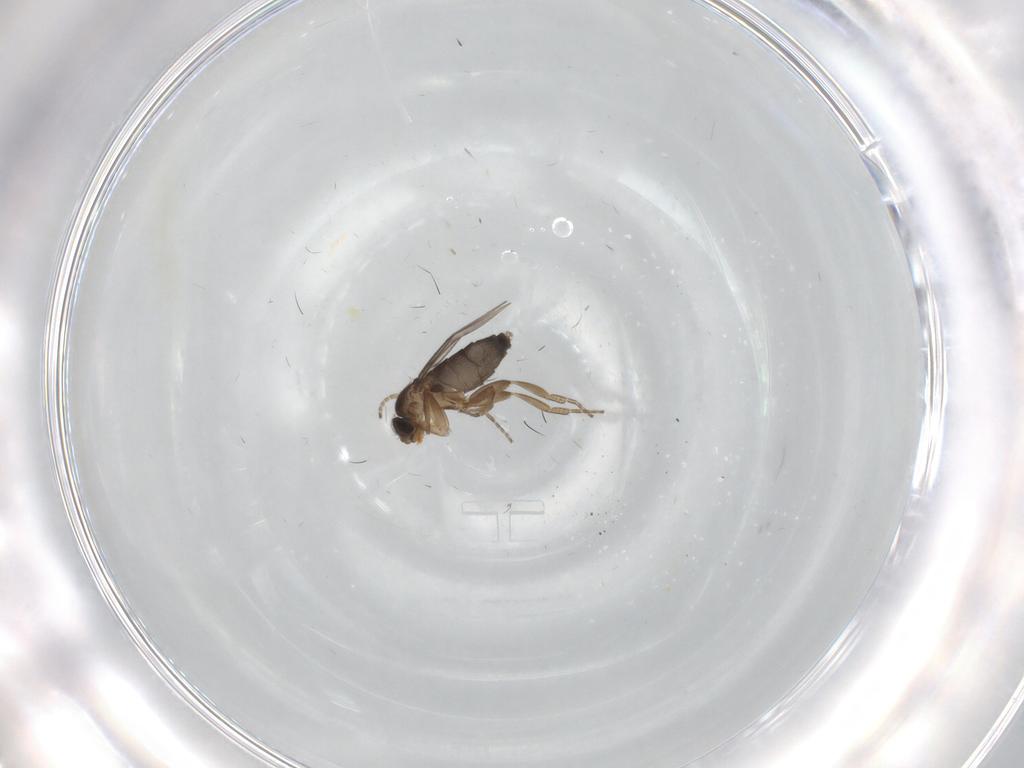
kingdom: Animalia
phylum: Arthropoda
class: Insecta
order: Diptera
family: Phoridae
